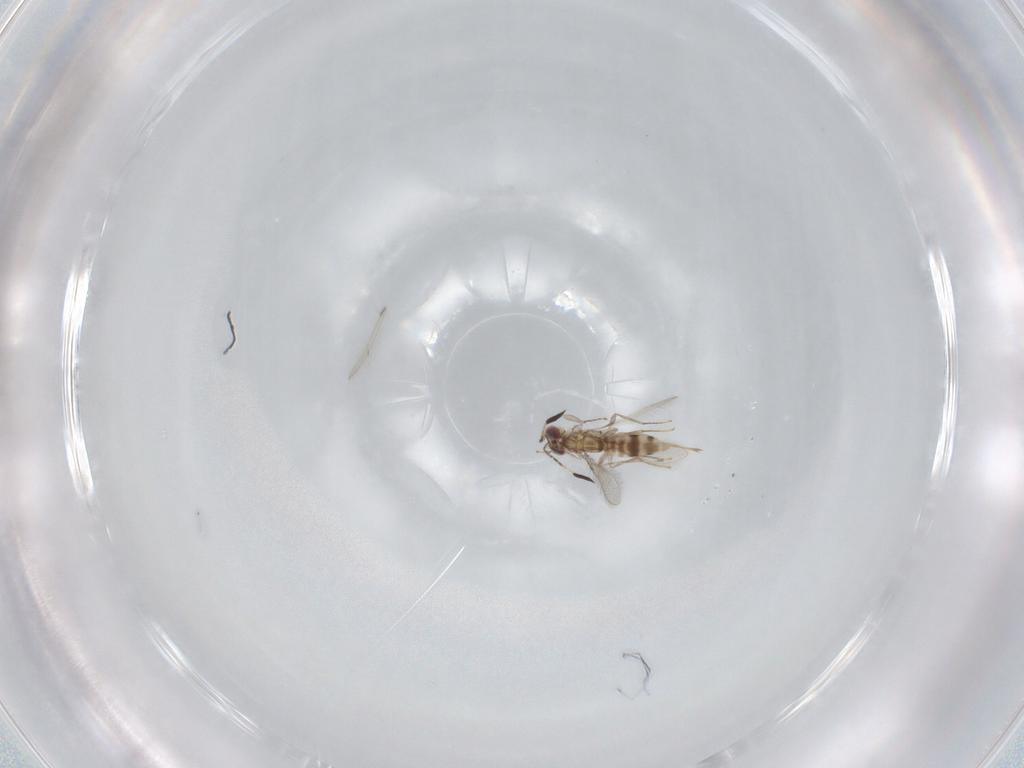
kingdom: Animalia
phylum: Arthropoda
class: Insecta
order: Hymenoptera
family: Mymaridae
